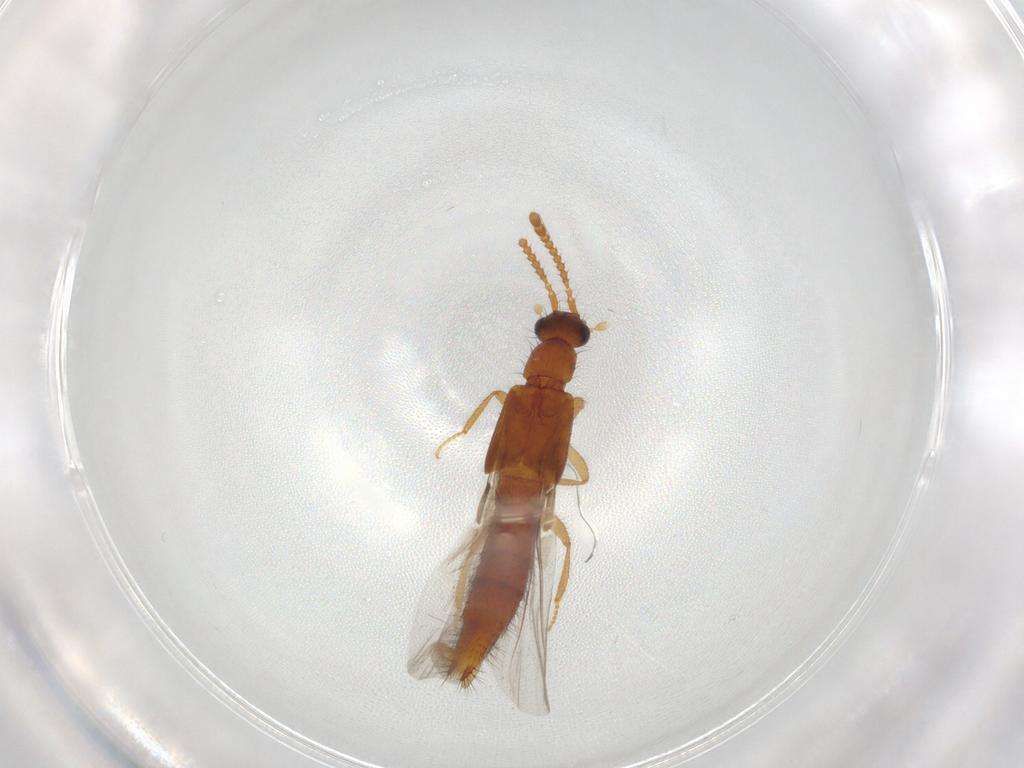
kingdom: Animalia
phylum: Arthropoda
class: Insecta
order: Coleoptera
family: Staphylinidae
